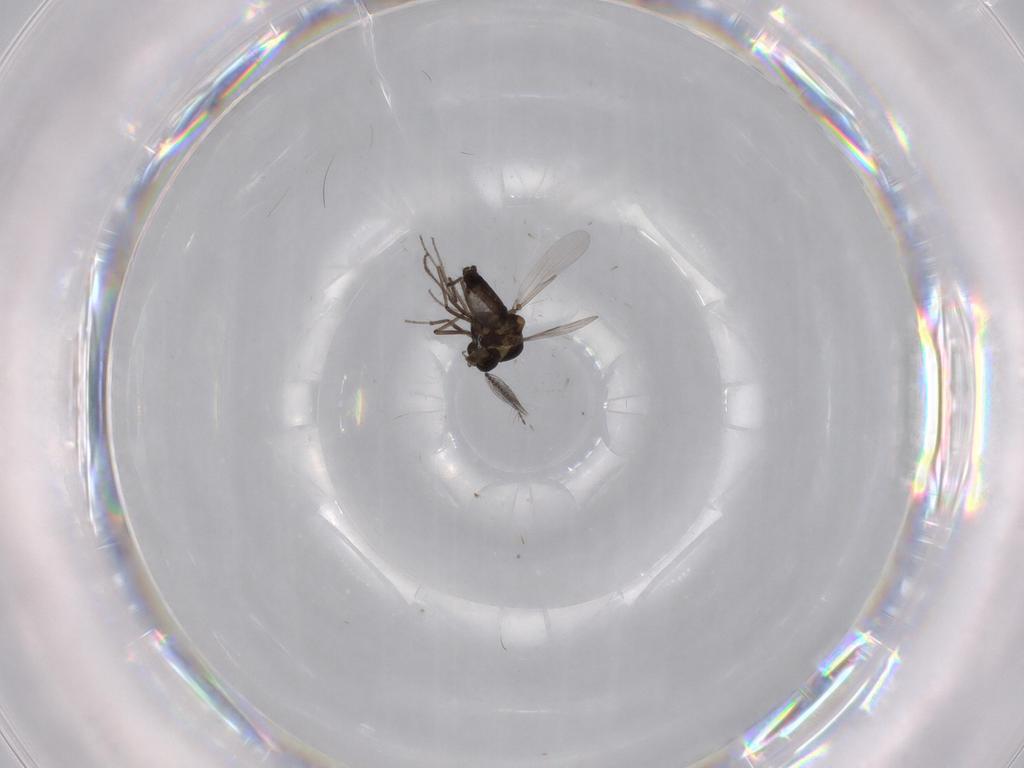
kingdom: Animalia
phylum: Arthropoda
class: Insecta
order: Diptera
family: Ceratopogonidae
